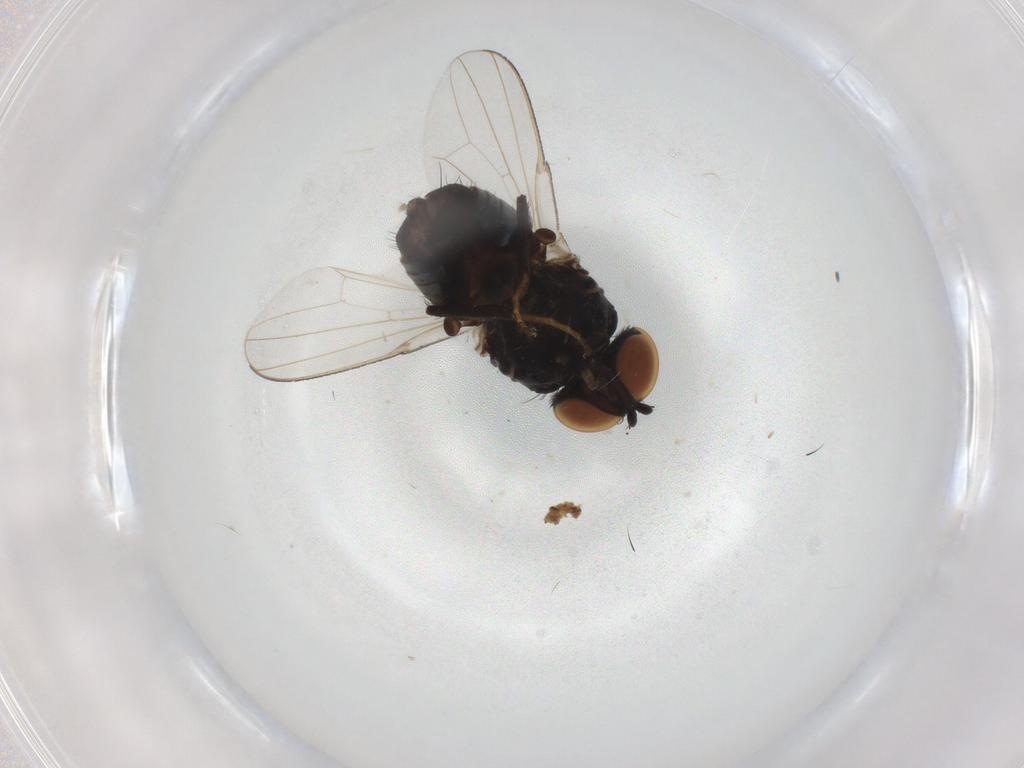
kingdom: Animalia
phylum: Arthropoda
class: Insecta
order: Diptera
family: Milichiidae
